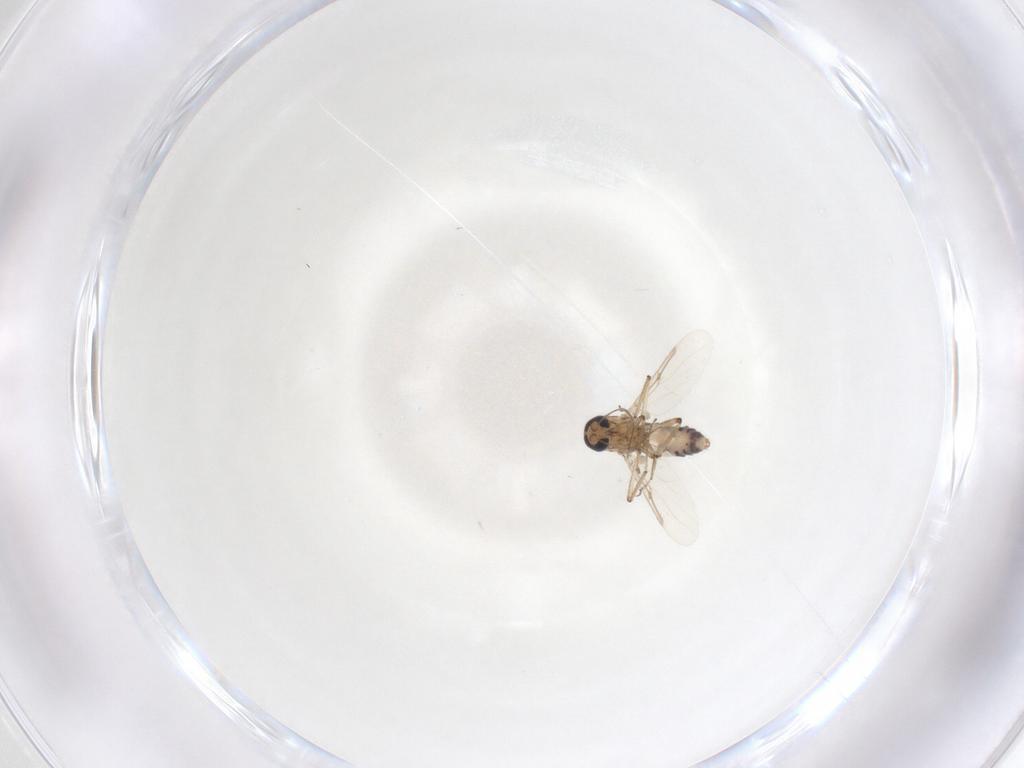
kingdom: Animalia
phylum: Arthropoda
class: Insecta
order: Diptera
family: Ceratopogonidae
